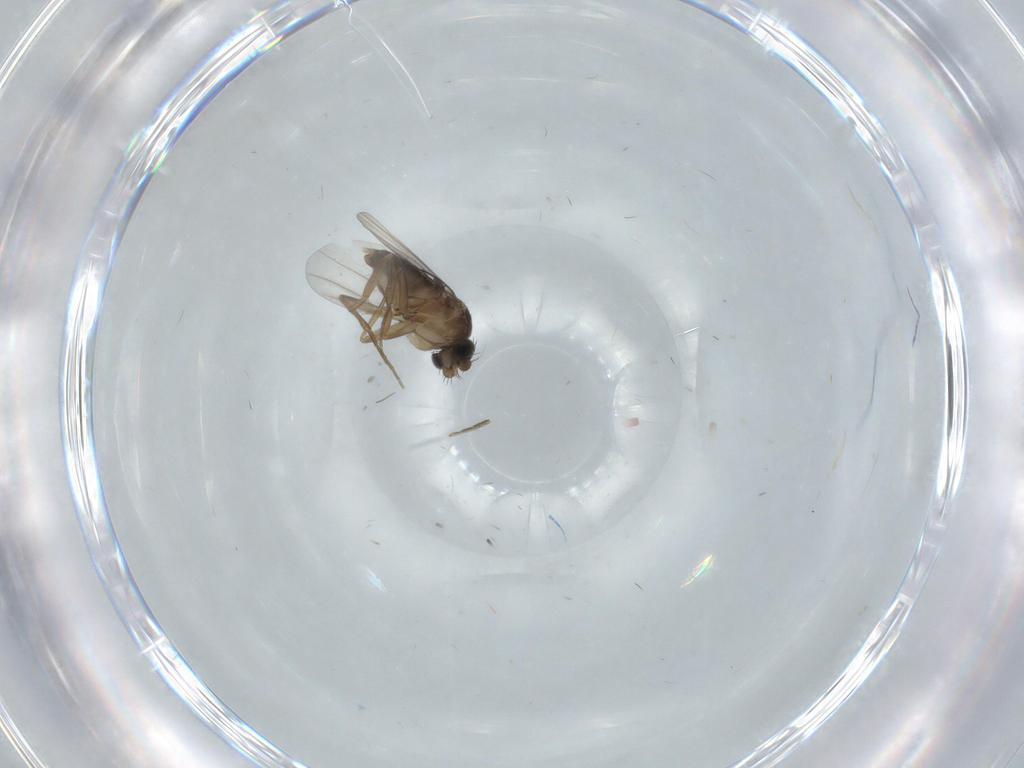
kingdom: Animalia
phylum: Arthropoda
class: Insecta
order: Diptera
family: Phoridae
